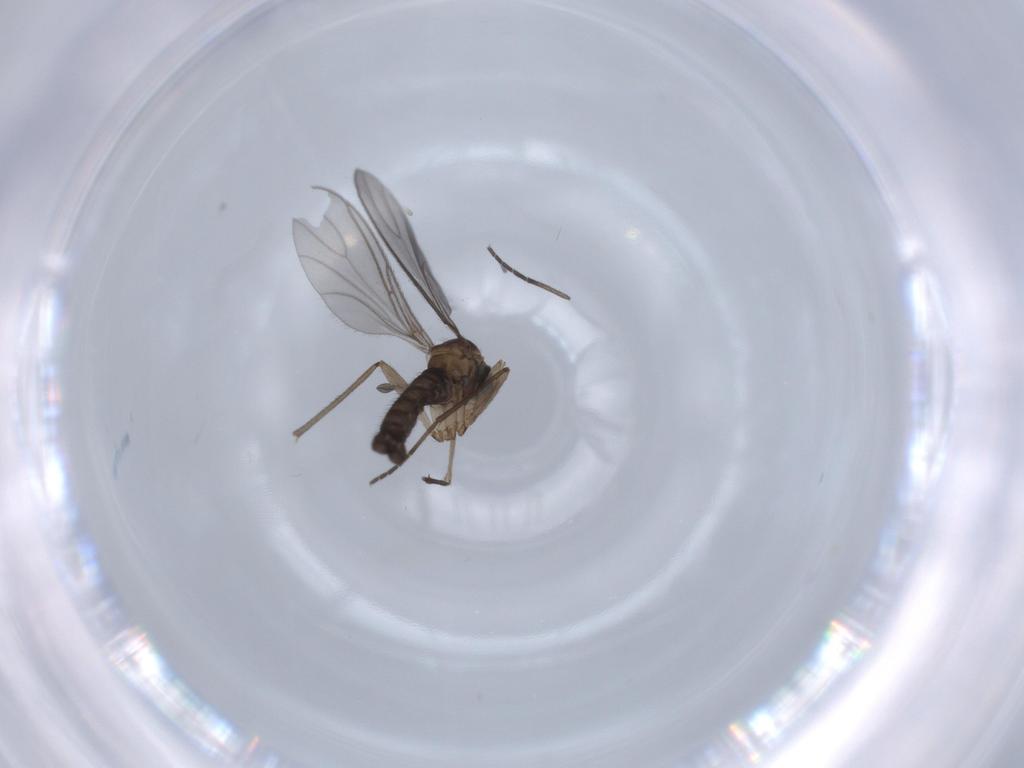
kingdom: Animalia
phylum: Arthropoda
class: Insecta
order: Diptera
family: Sciaridae
